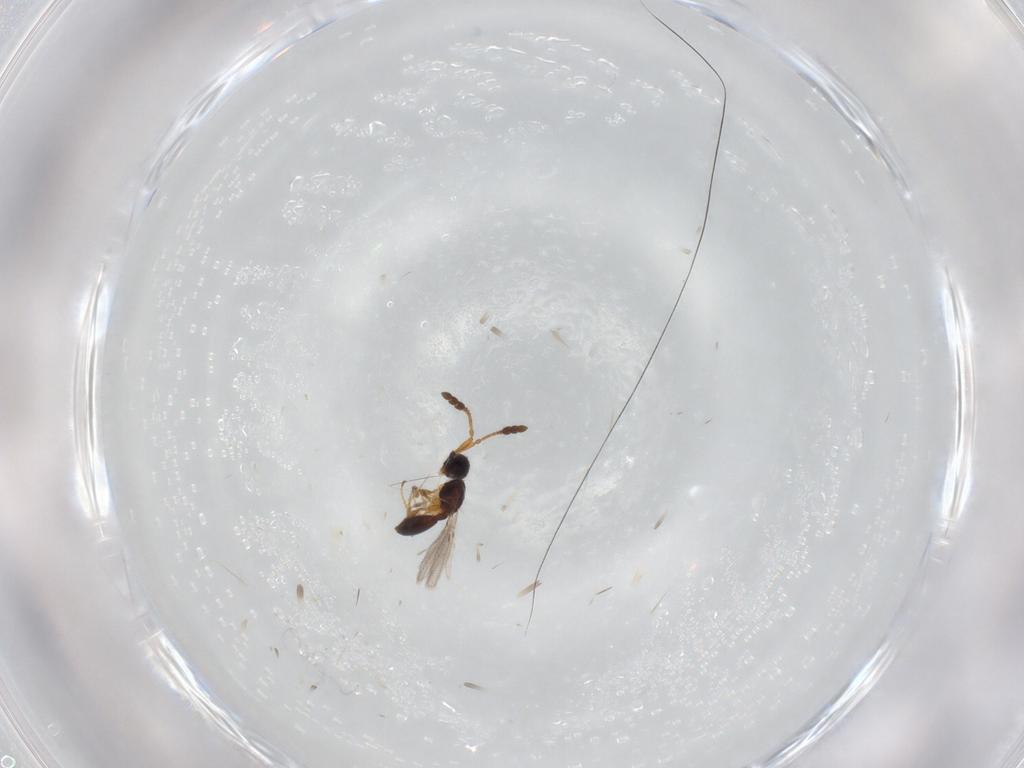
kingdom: Animalia
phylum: Arthropoda
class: Insecta
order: Hymenoptera
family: Diapriidae
